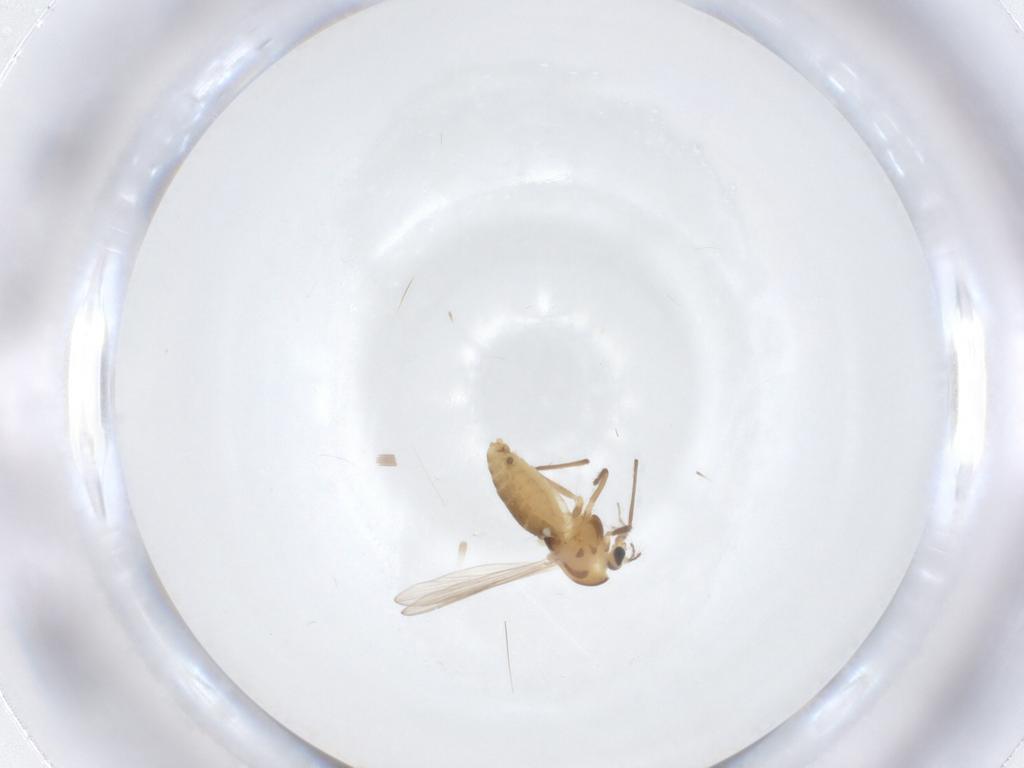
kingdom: Animalia
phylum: Arthropoda
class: Insecta
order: Diptera
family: Chironomidae
